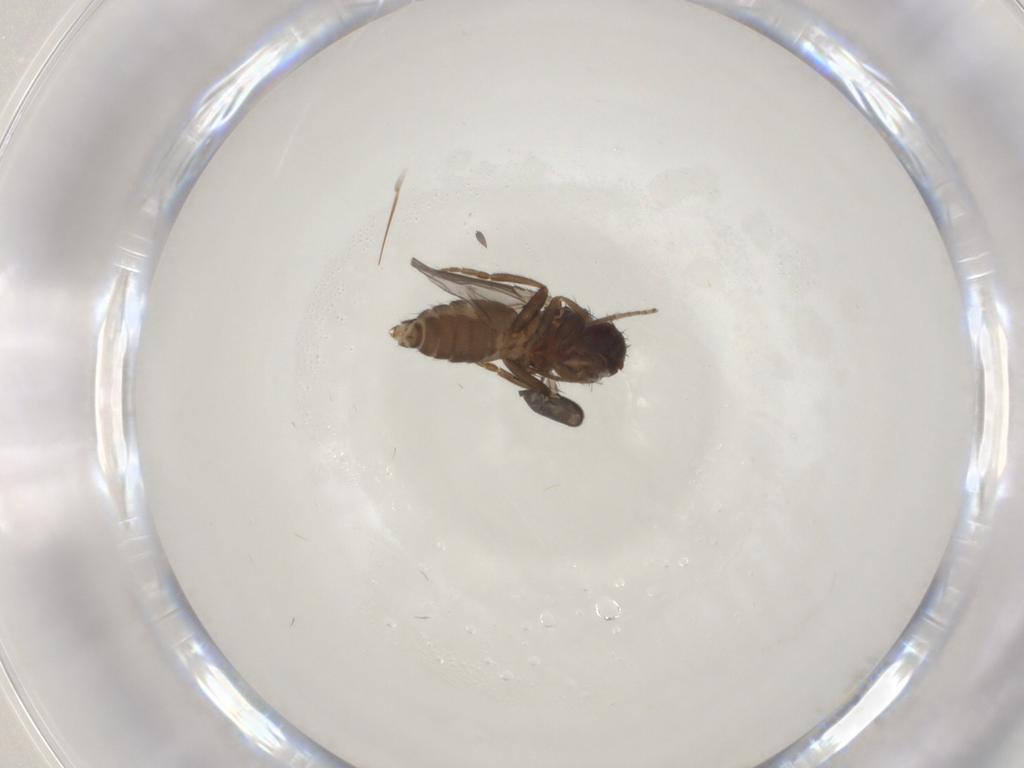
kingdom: Animalia
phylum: Arthropoda
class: Insecta
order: Diptera
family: Sphaeroceridae
